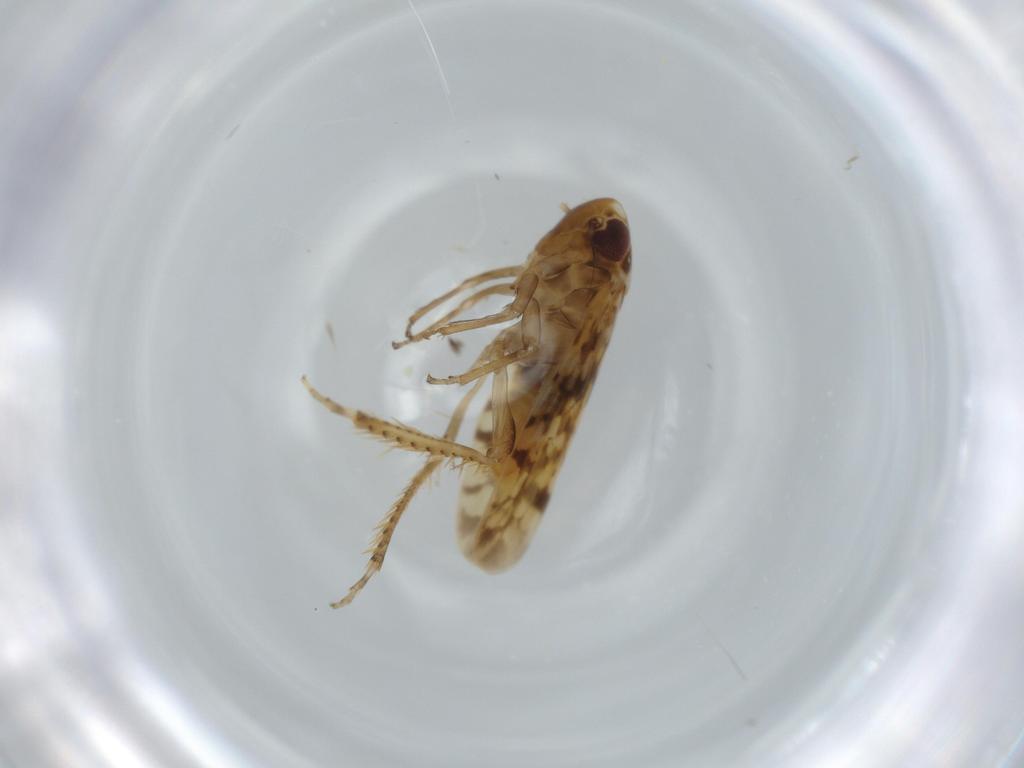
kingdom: Animalia
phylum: Arthropoda
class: Insecta
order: Hemiptera
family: Cicadellidae
